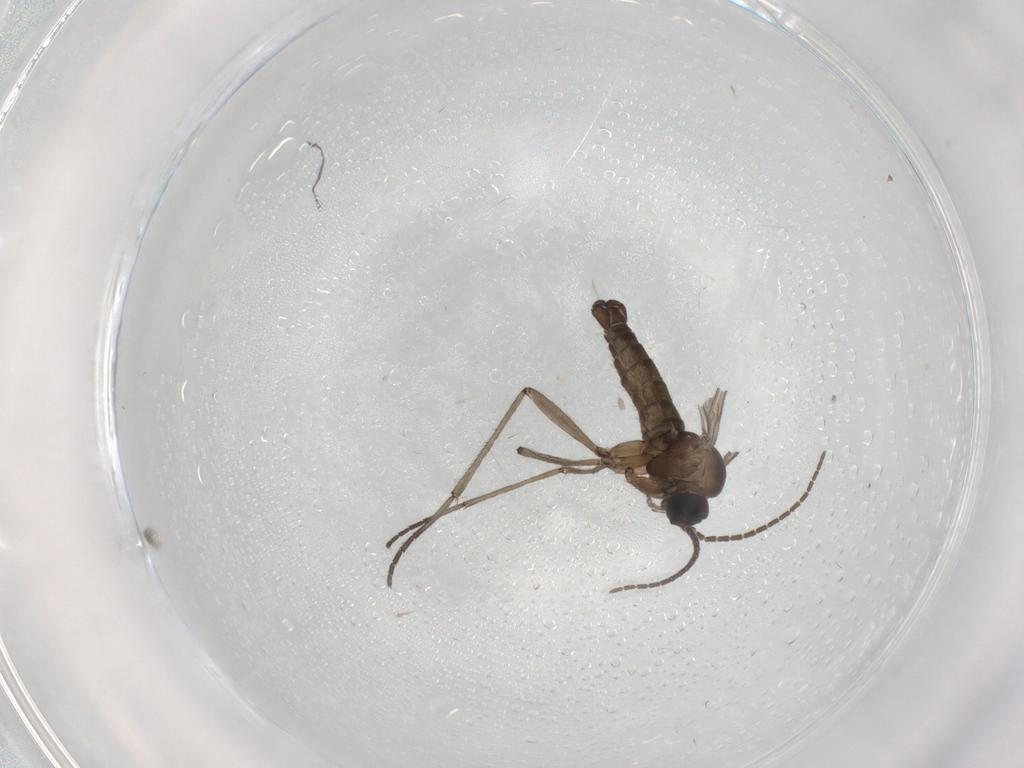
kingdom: Animalia
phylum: Arthropoda
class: Insecta
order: Diptera
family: Sciaridae
